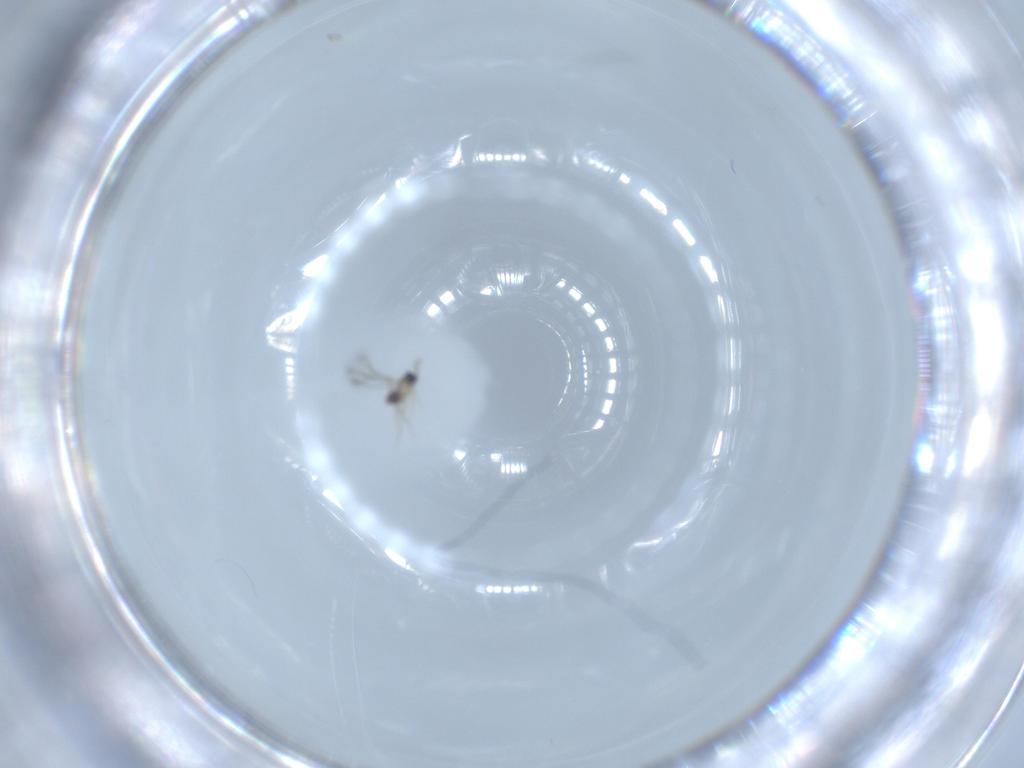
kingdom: Animalia
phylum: Arthropoda
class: Insecta
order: Hymenoptera
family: Mymaridae
